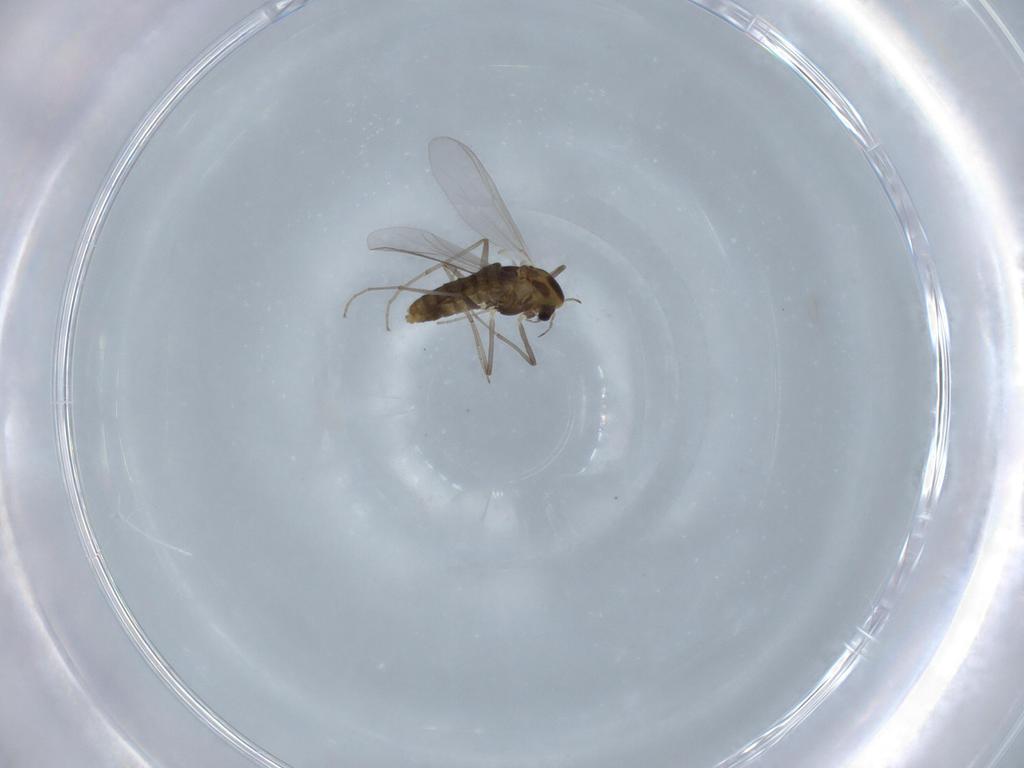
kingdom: Animalia
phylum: Arthropoda
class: Insecta
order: Diptera
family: Chironomidae
